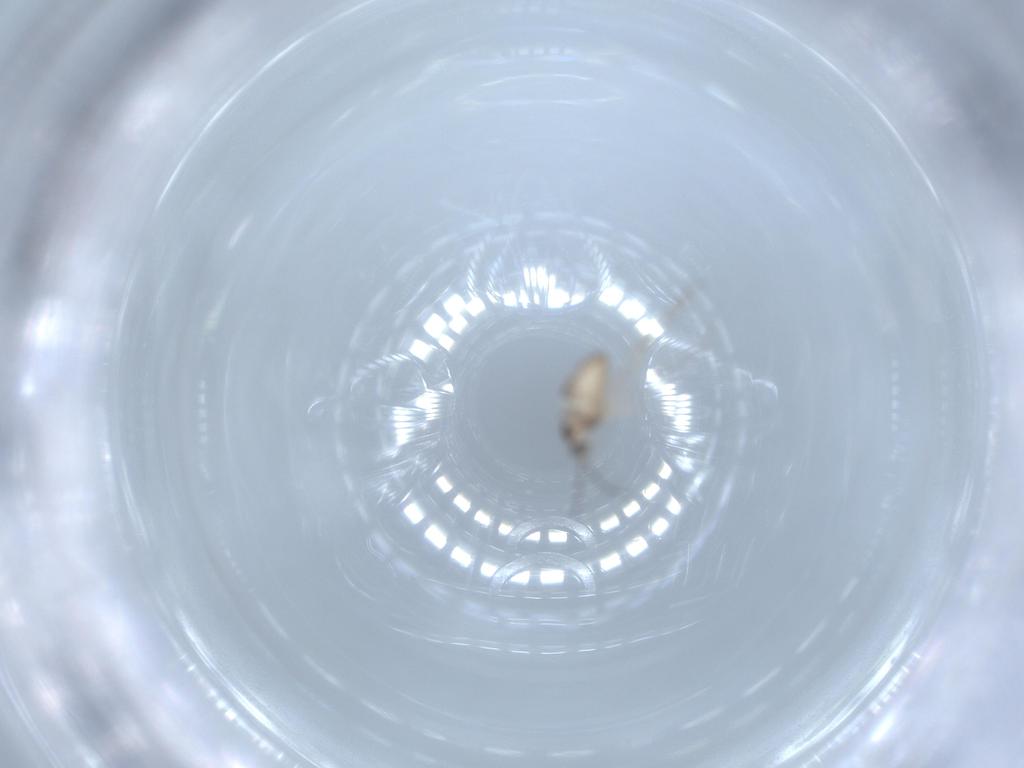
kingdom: Animalia
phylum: Arthropoda
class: Insecta
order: Diptera
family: Cecidomyiidae
